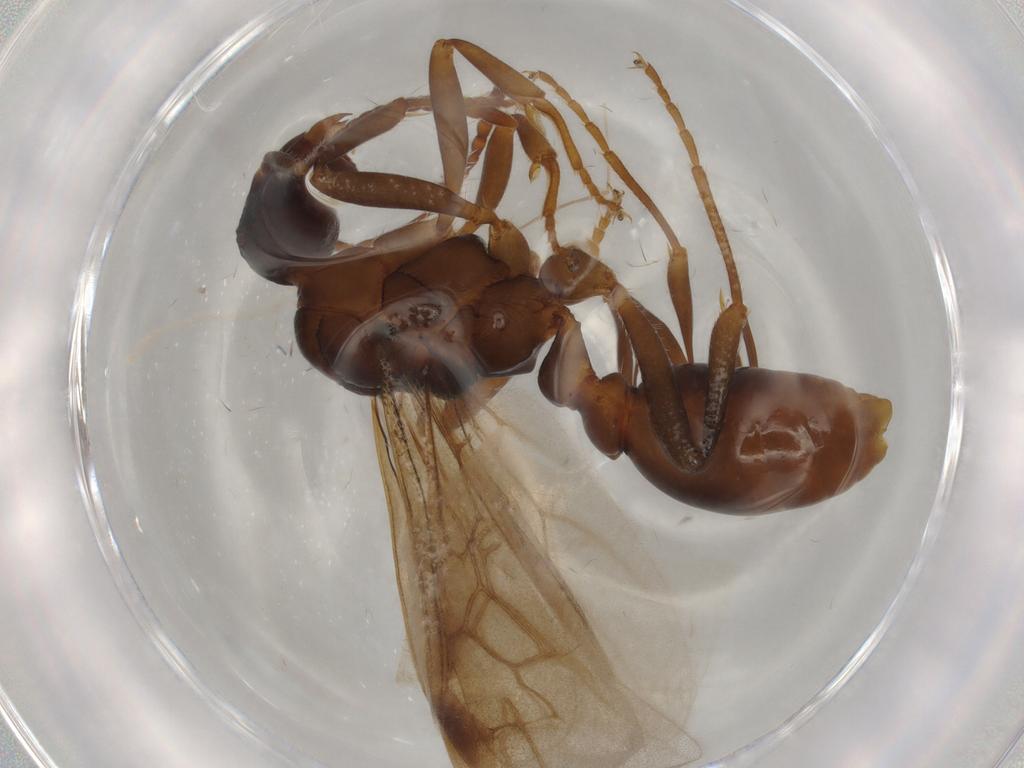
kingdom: Animalia
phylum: Arthropoda
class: Insecta
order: Hymenoptera
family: Formicidae
